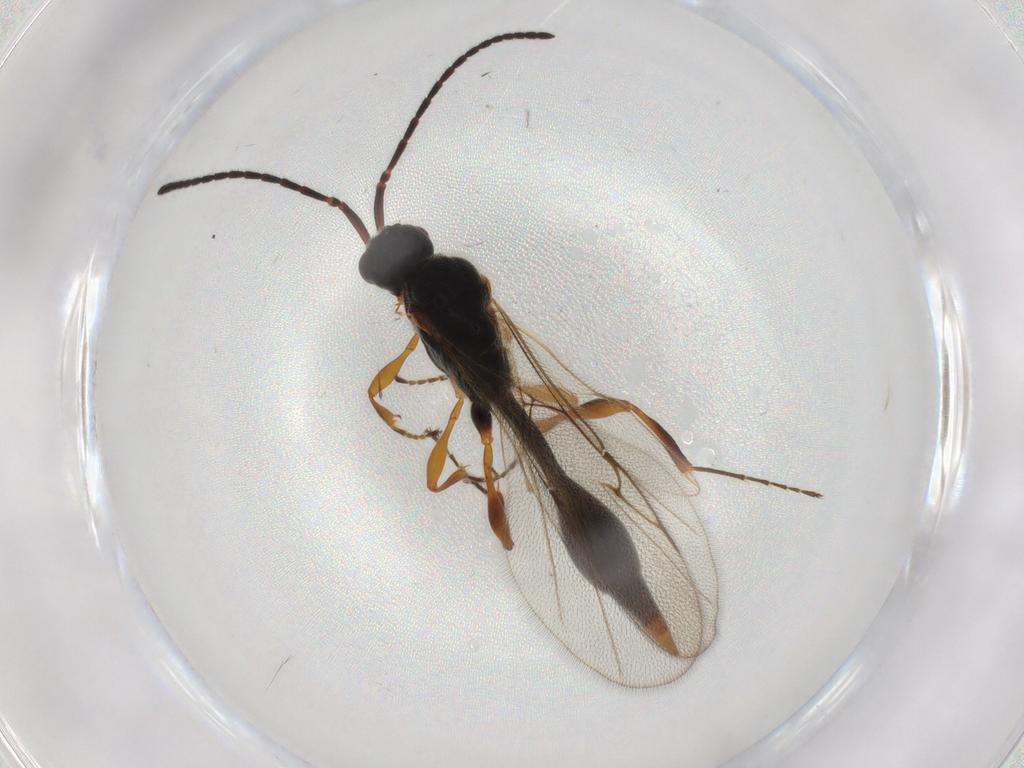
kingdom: Animalia
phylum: Arthropoda
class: Insecta
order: Hymenoptera
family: Diapriidae
